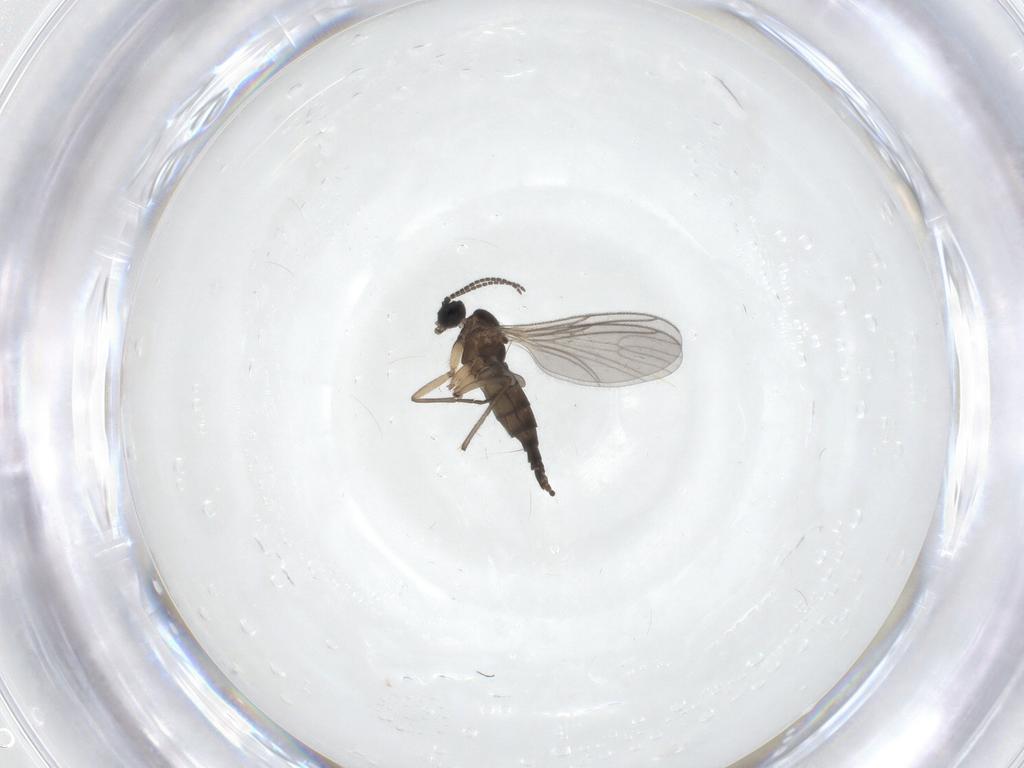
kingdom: Animalia
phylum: Arthropoda
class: Insecta
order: Diptera
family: Sciaridae
